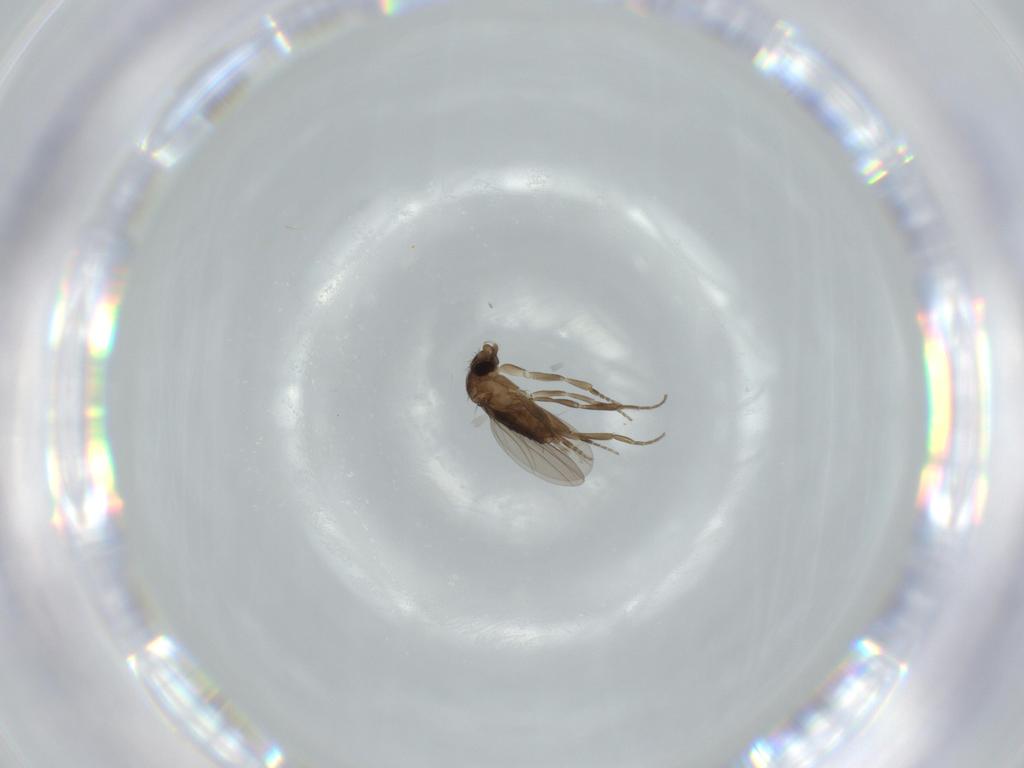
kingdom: Animalia
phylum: Arthropoda
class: Insecta
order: Diptera
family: Phoridae
